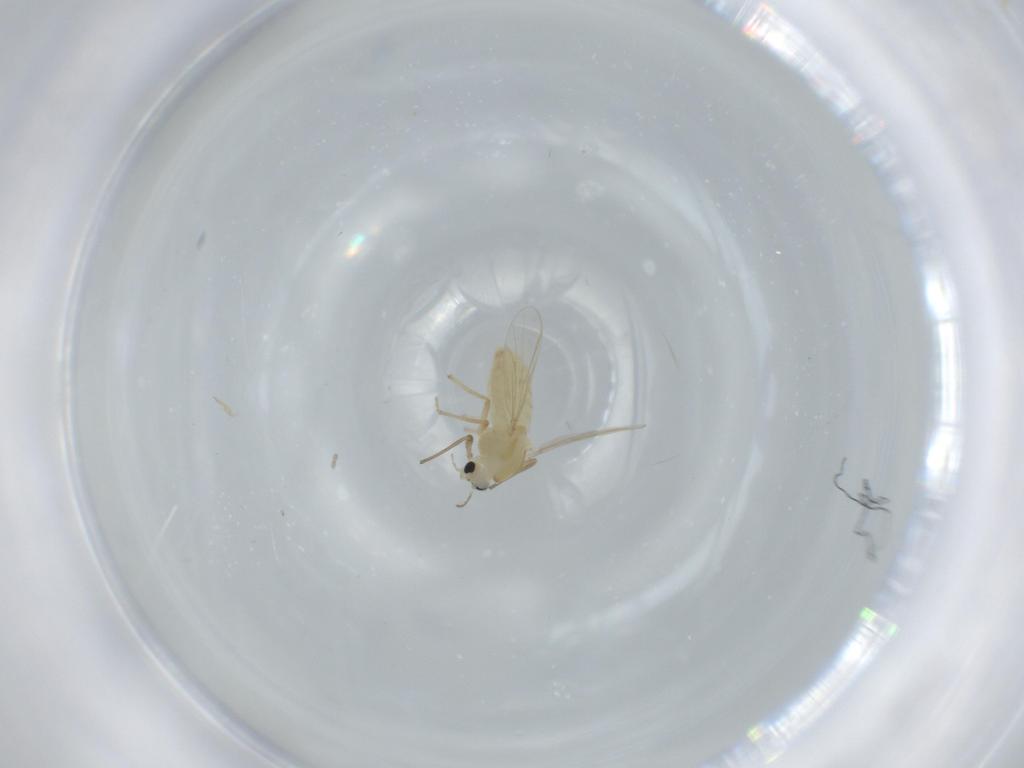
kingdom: Animalia
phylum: Arthropoda
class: Insecta
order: Diptera
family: Chironomidae
